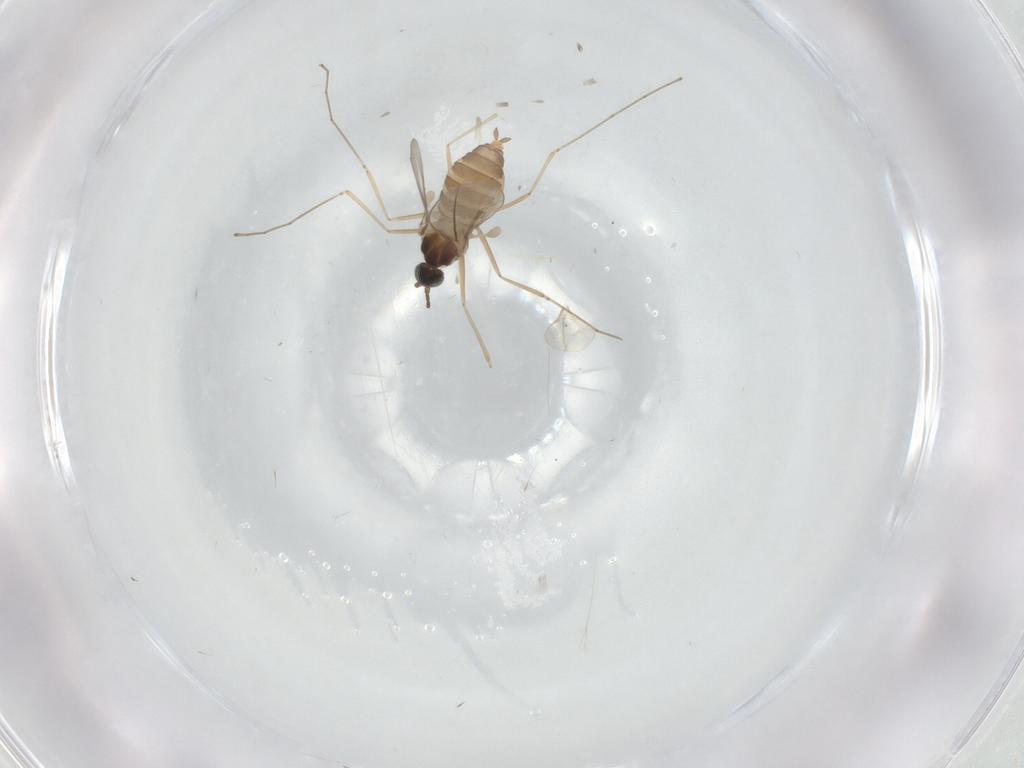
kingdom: Animalia
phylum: Arthropoda
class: Insecta
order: Diptera
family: Cecidomyiidae
